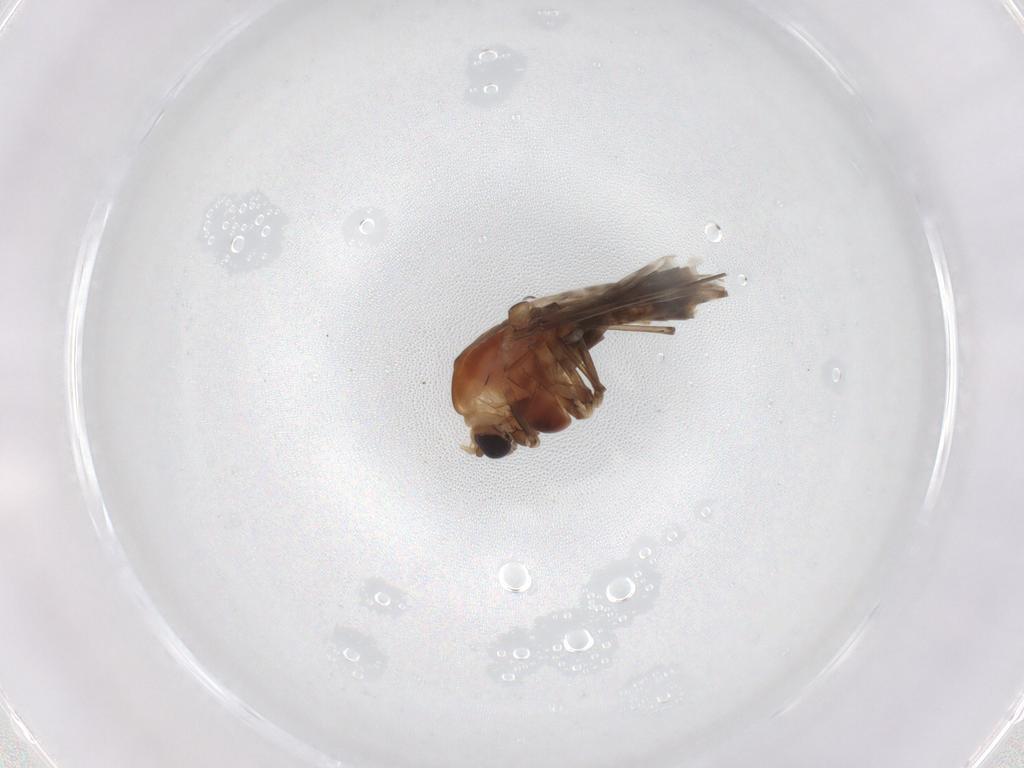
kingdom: Animalia
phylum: Arthropoda
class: Insecta
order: Diptera
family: Chironomidae
